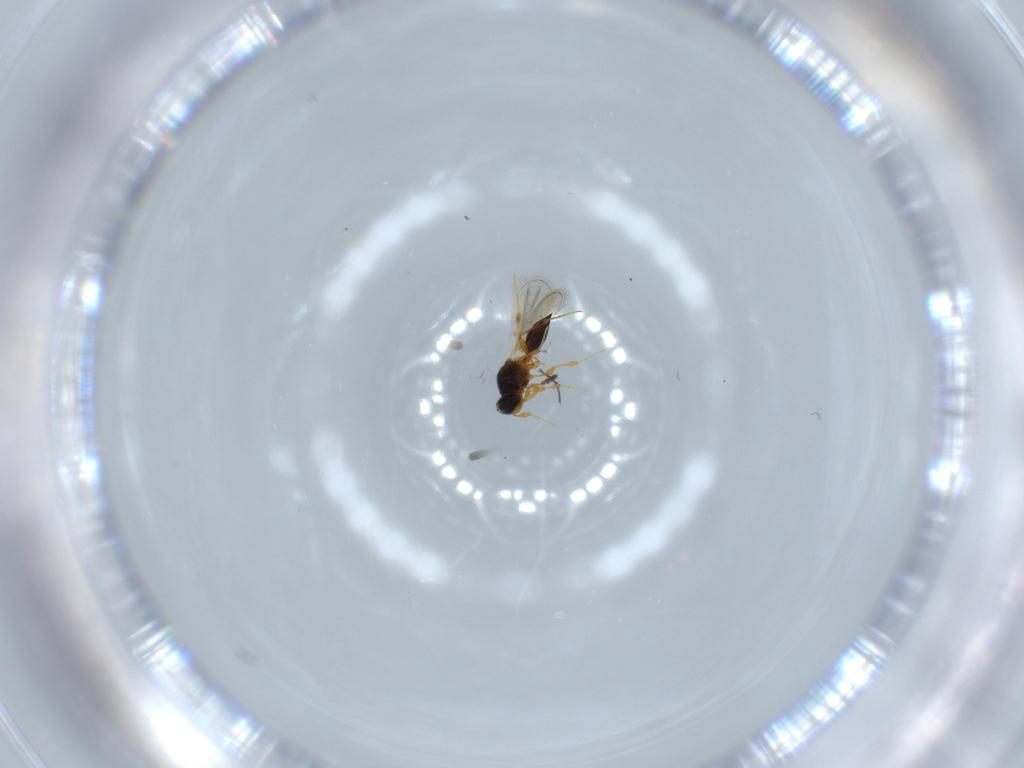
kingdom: Animalia
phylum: Arthropoda
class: Insecta
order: Hymenoptera
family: Platygastridae
